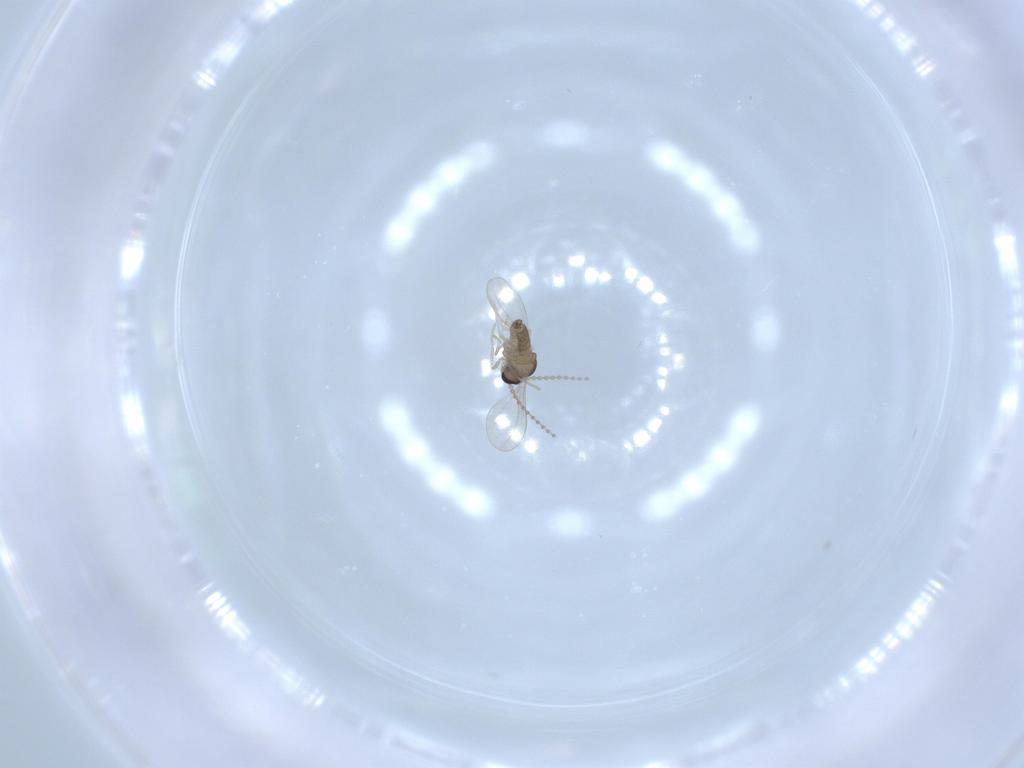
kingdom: Animalia
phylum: Arthropoda
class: Insecta
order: Diptera
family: Cecidomyiidae
